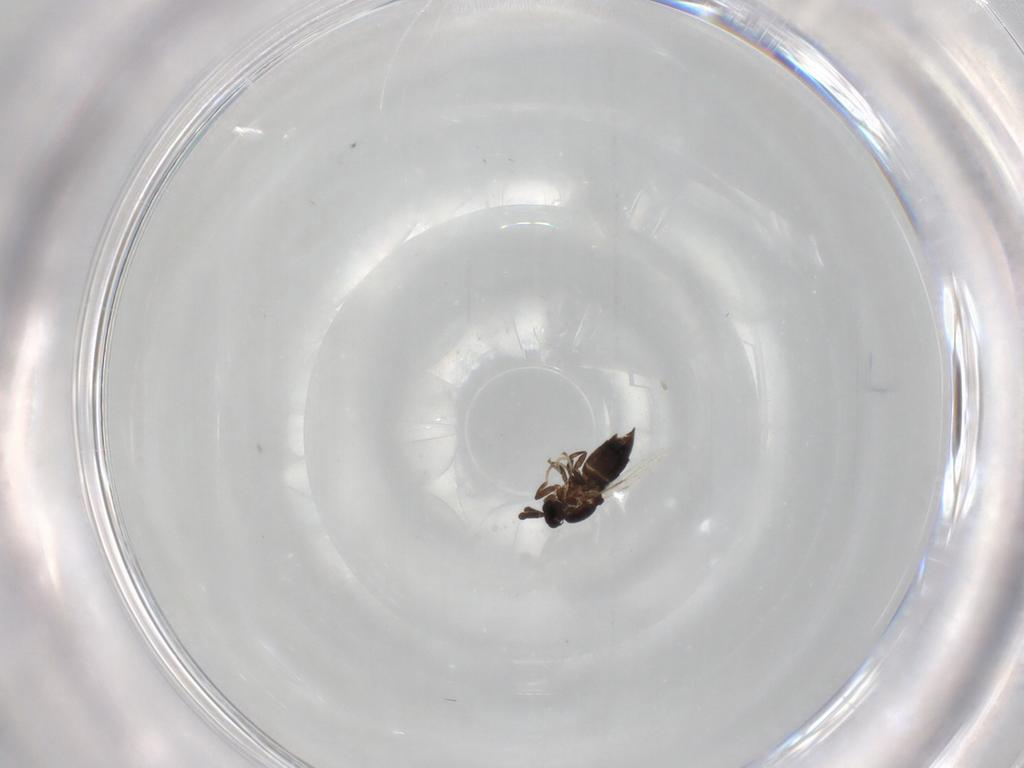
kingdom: Animalia
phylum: Arthropoda
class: Insecta
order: Diptera
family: Scatopsidae
